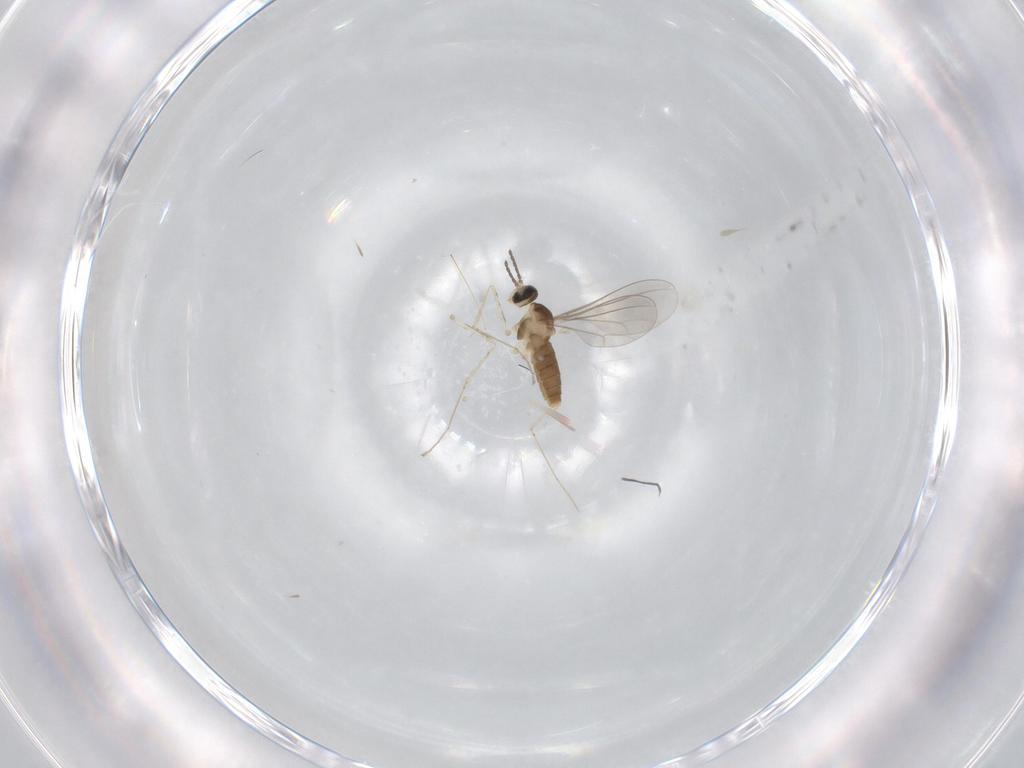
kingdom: Animalia
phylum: Arthropoda
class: Insecta
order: Diptera
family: Cecidomyiidae
